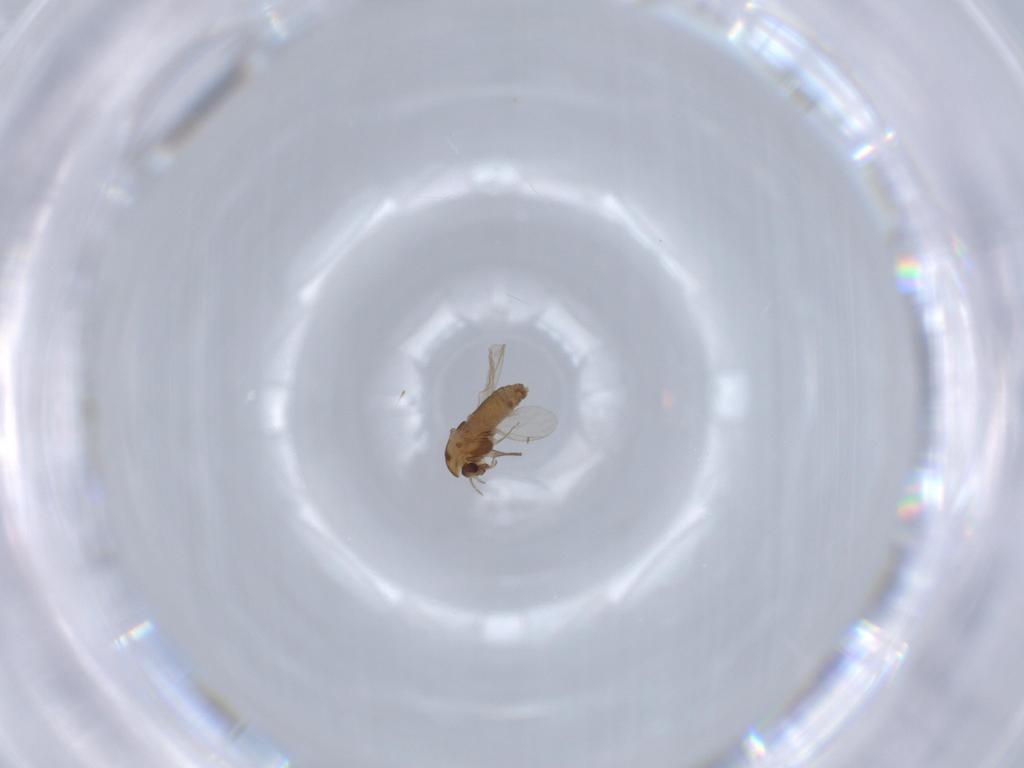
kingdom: Animalia
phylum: Arthropoda
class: Insecta
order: Diptera
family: Chironomidae
